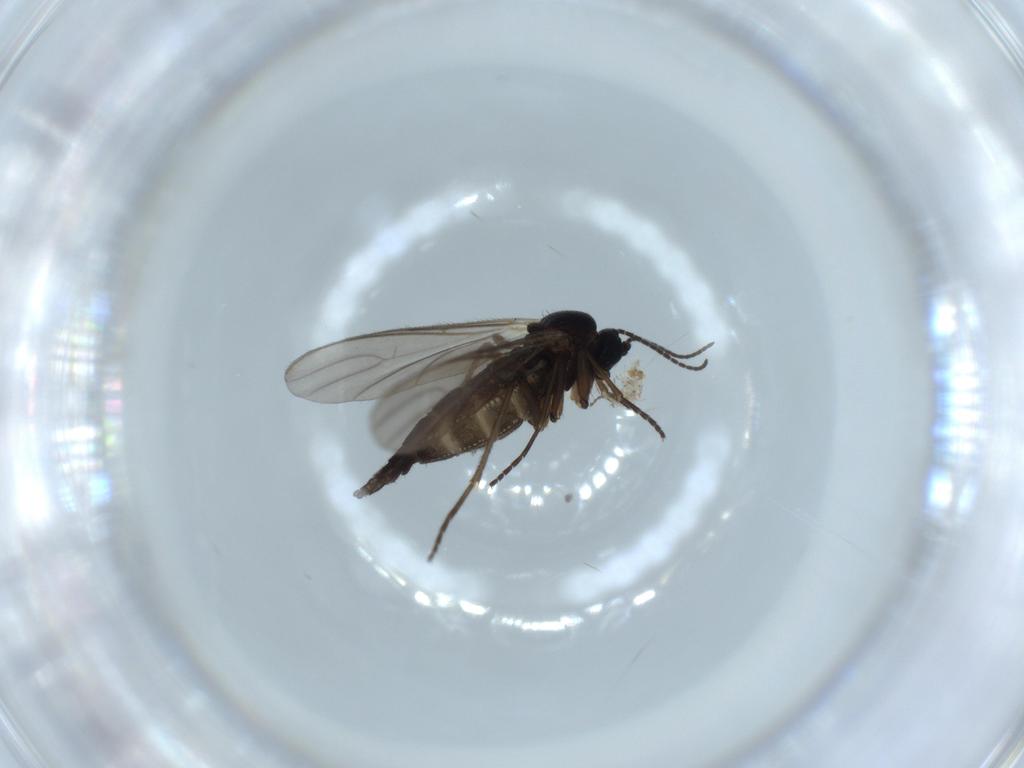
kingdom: Animalia
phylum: Arthropoda
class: Insecta
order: Diptera
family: Sciaridae
